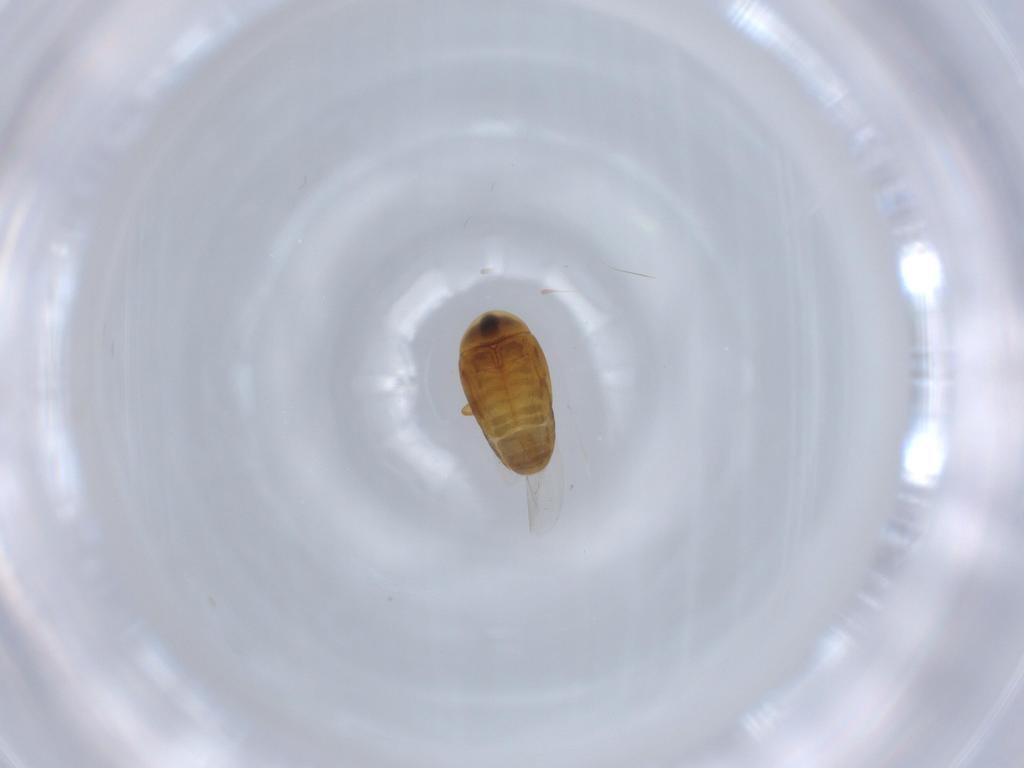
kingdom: Animalia
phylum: Arthropoda
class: Insecta
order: Coleoptera
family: Corylophidae
